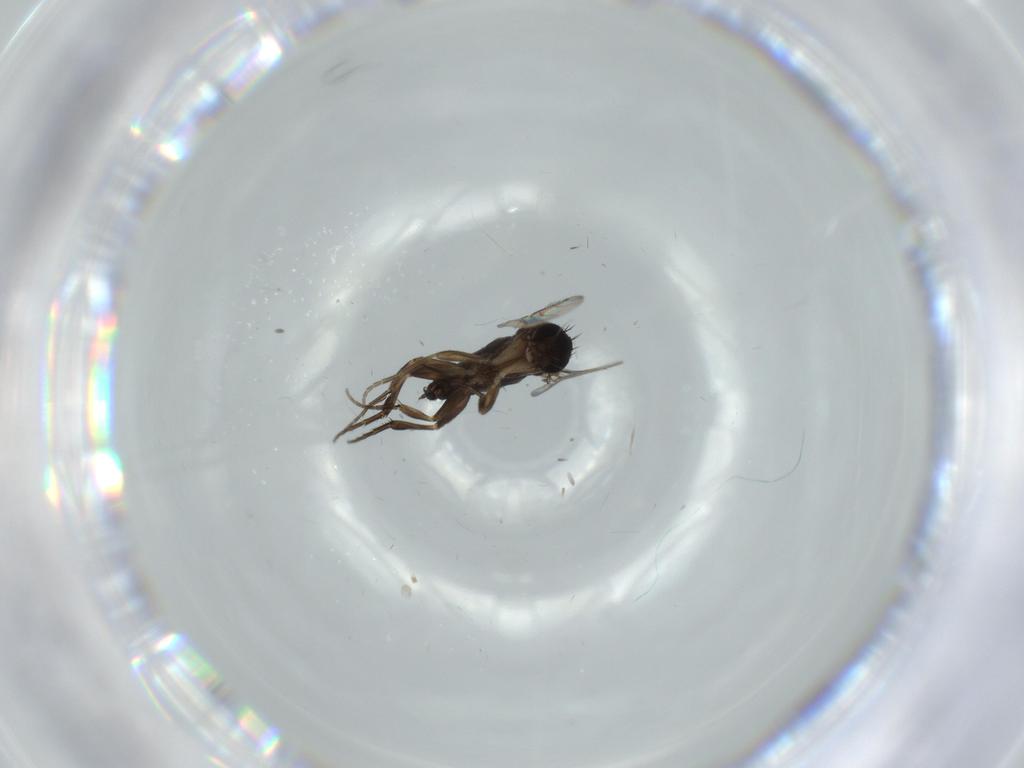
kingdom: Animalia
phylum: Arthropoda
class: Insecta
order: Diptera
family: Phoridae
